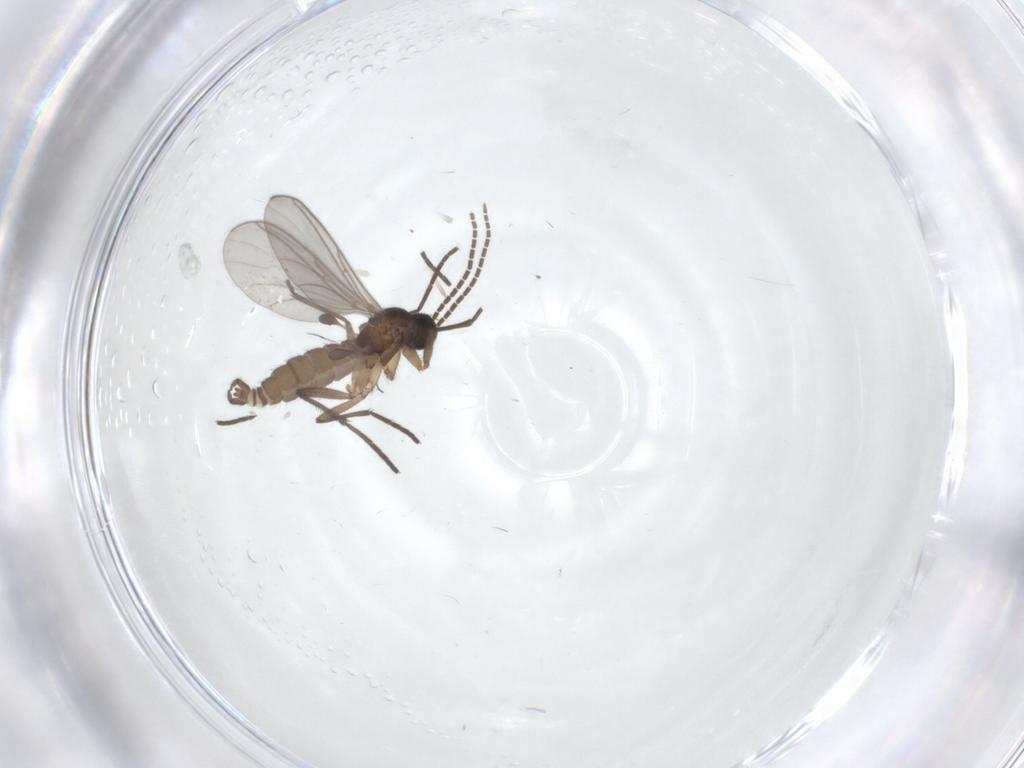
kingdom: Animalia
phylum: Arthropoda
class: Insecta
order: Diptera
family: Sciaridae
